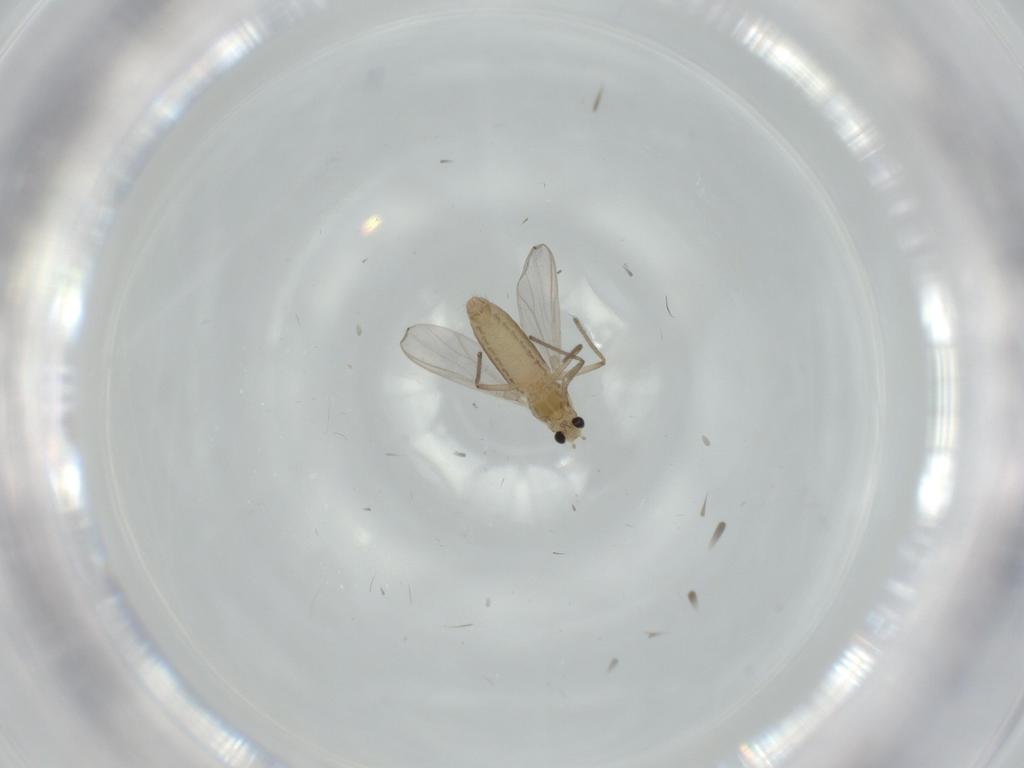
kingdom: Animalia
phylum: Arthropoda
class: Insecta
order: Diptera
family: Chironomidae
